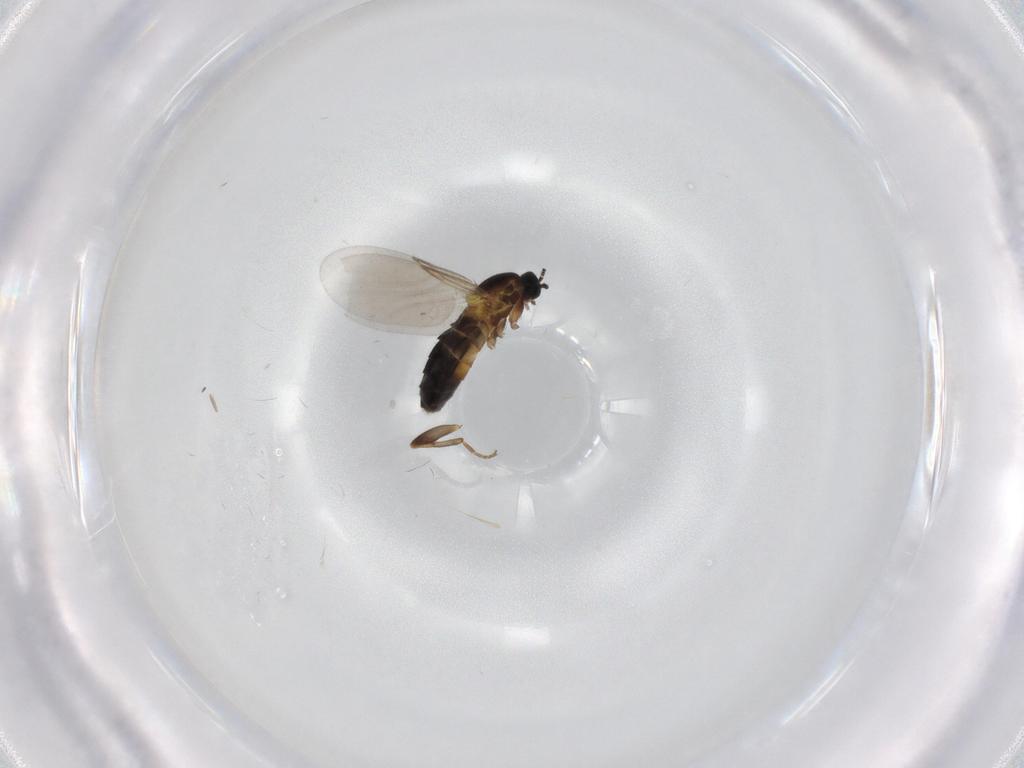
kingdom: Animalia
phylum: Arthropoda
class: Insecta
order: Diptera
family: Scatopsidae
